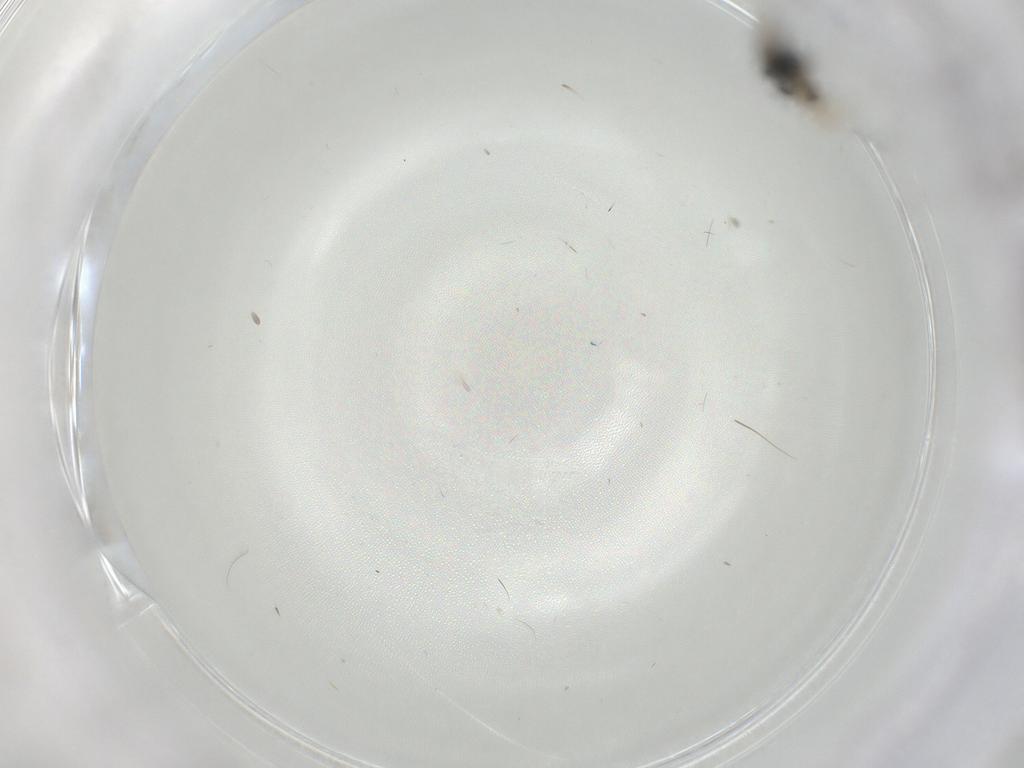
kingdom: Animalia
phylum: Arthropoda
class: Insecta
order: Hymenoptera
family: Scelionidae
